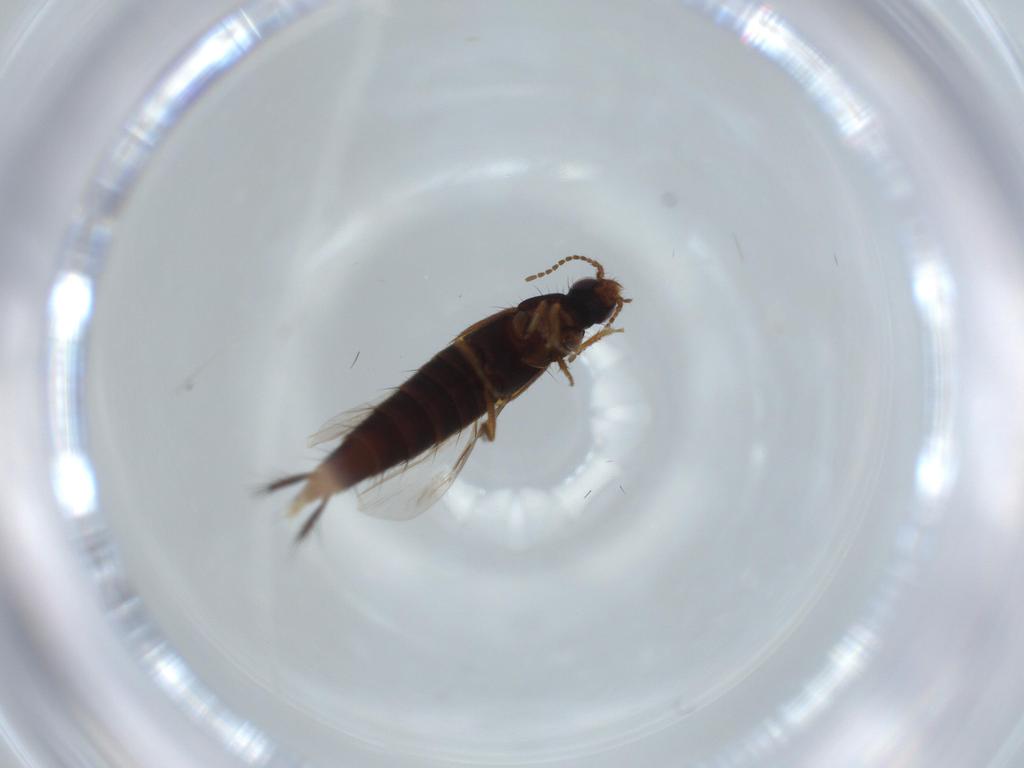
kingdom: Animalia
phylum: Arthropoda
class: Insecta
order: Coleoptera
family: Staphylinidae
